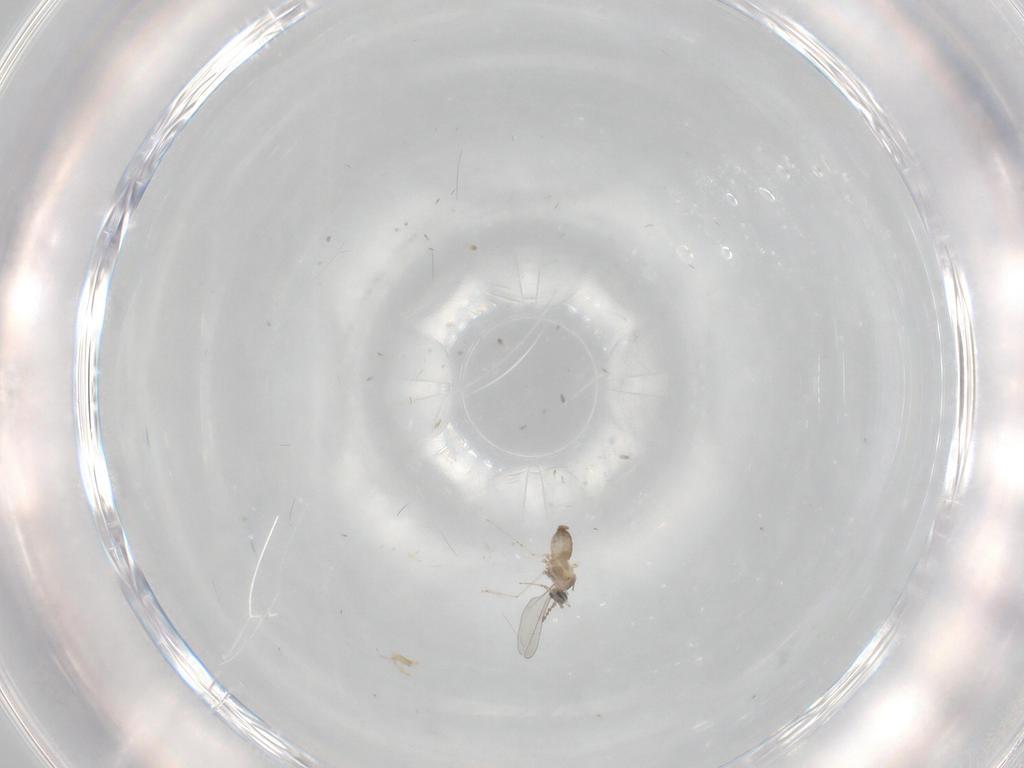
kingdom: Animalia
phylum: Arthropoda
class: Insecta
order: Diptera
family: Cecidomyiidae
